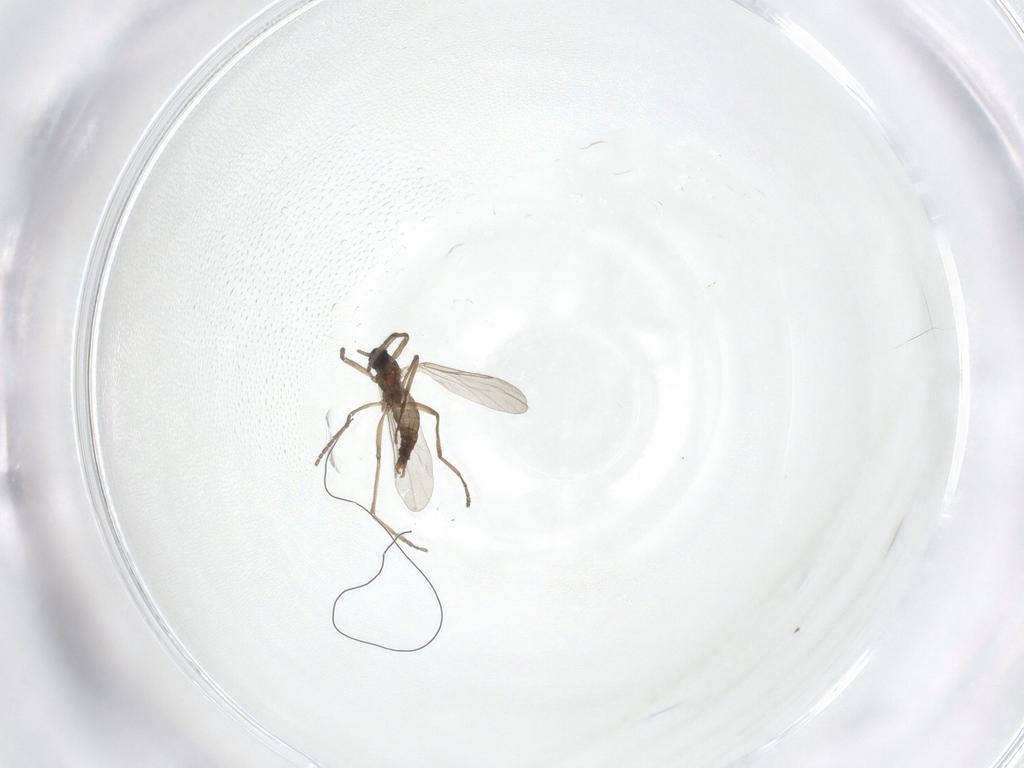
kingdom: Animalia
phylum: Arthropoda
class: Insecta
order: Diptera
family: Cecidomyiidae
